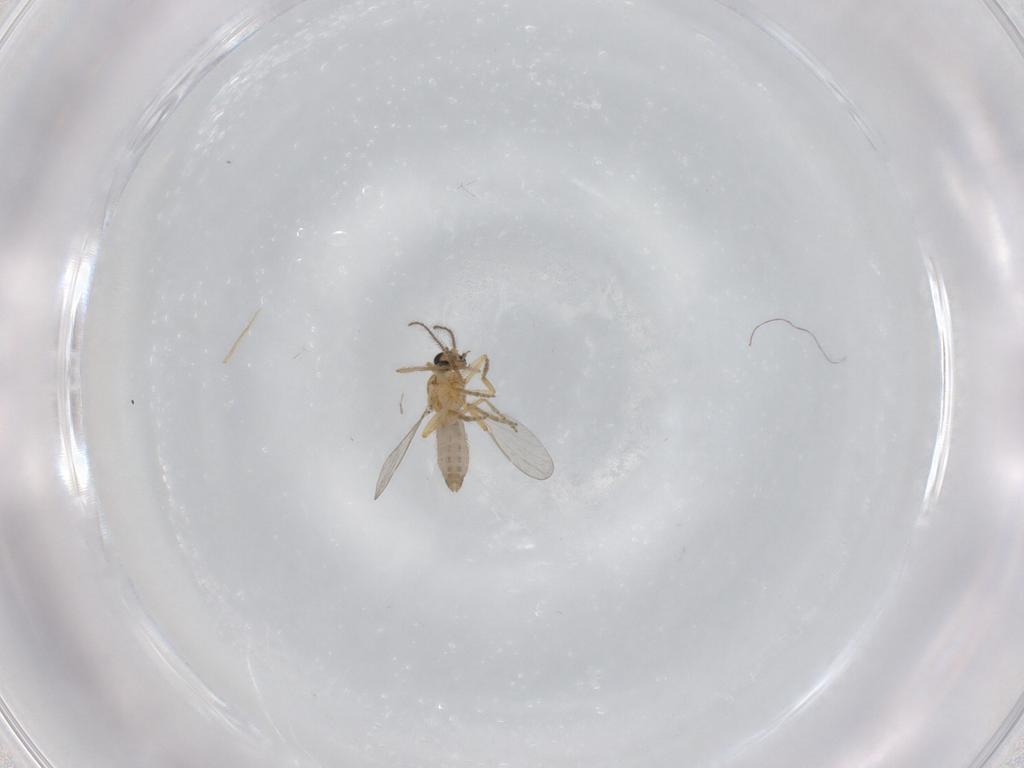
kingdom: Animalia
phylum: Arthropoda
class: Insecta
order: Diptera
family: Ceratopogonidae
